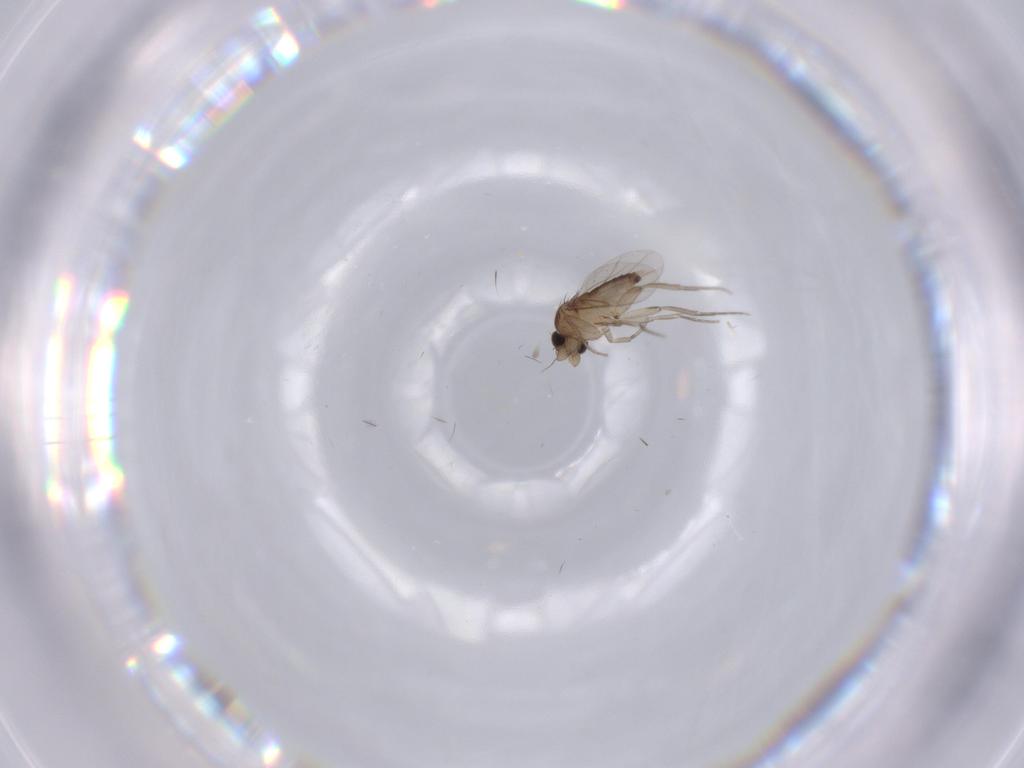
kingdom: Animalia
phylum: Arthropoda
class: Insecta
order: Diptera
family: Phoridae
